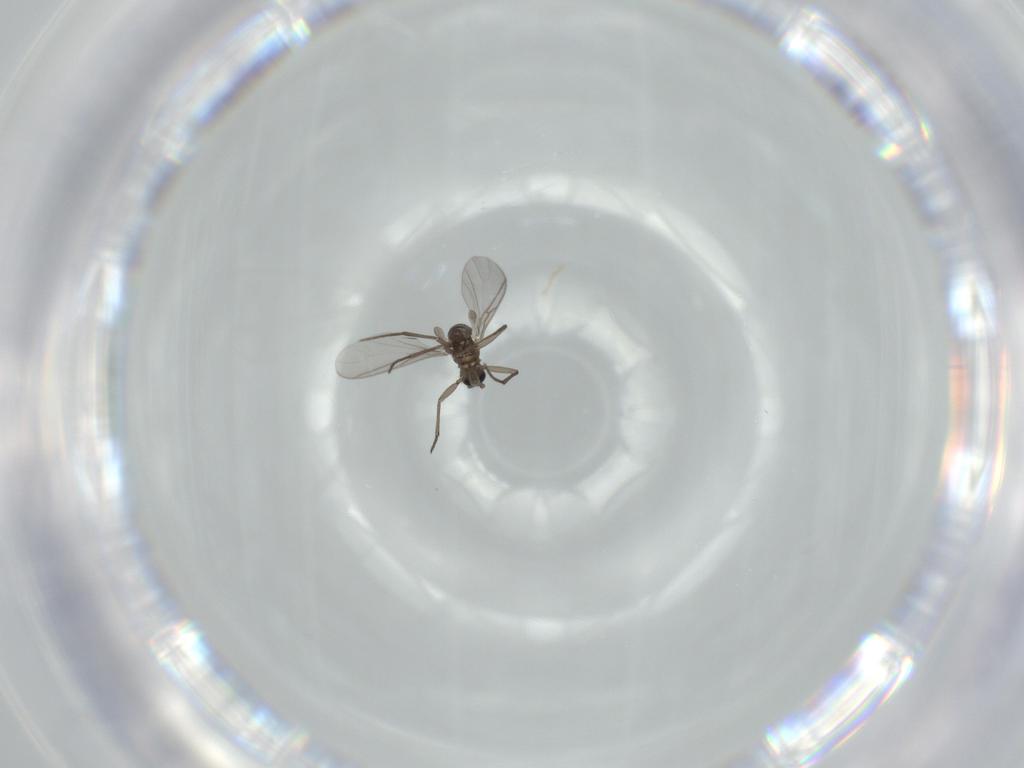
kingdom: Animalia
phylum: Arthropoda
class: Insecta
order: Diptera
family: Sciaridae
